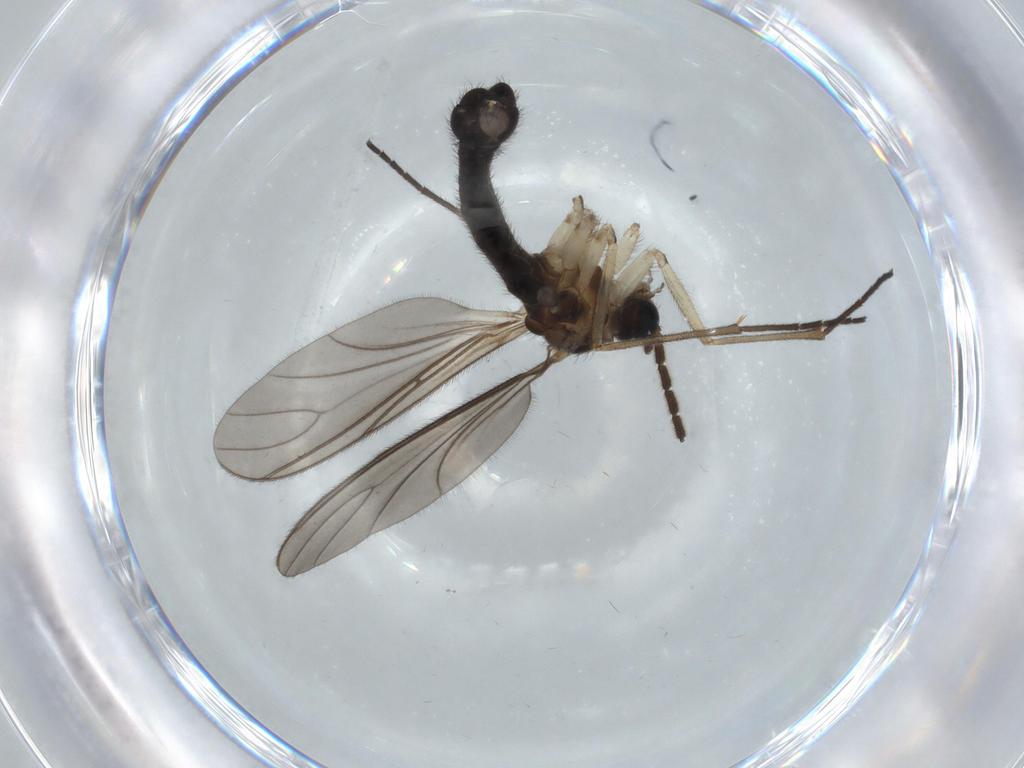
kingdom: Animalia
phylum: Arthropoda
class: Insecta
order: Diptera
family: Sciaridae
